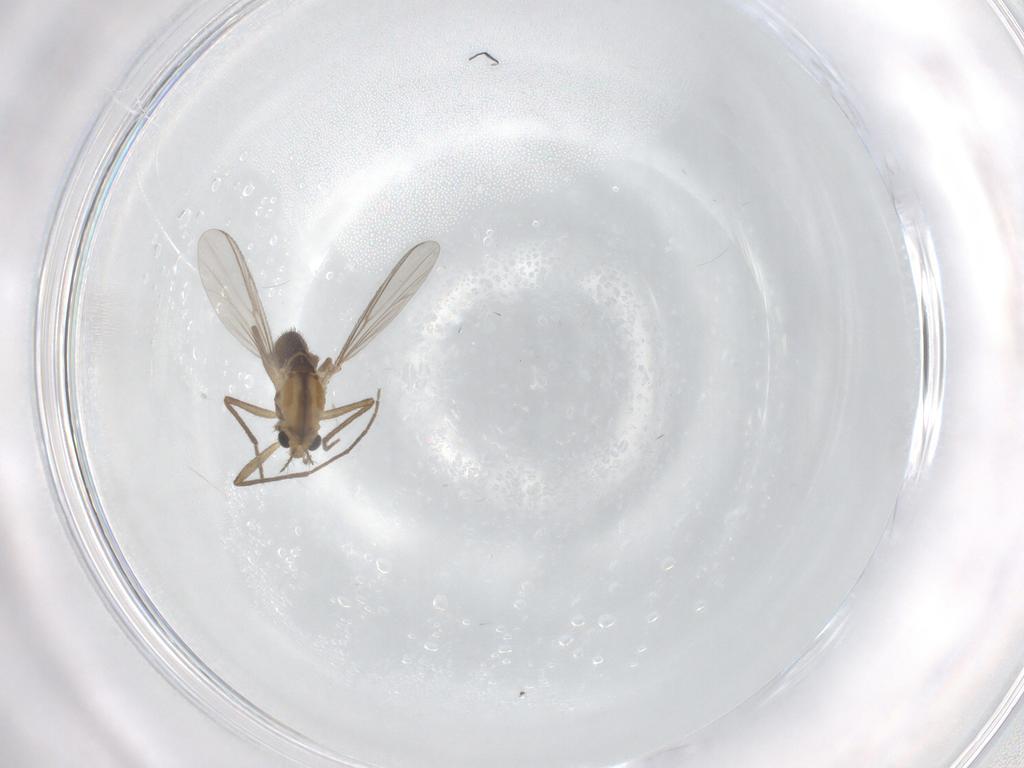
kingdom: Animalia
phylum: Arthropoda
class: Insecta
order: Diptera
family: Chironomidae
